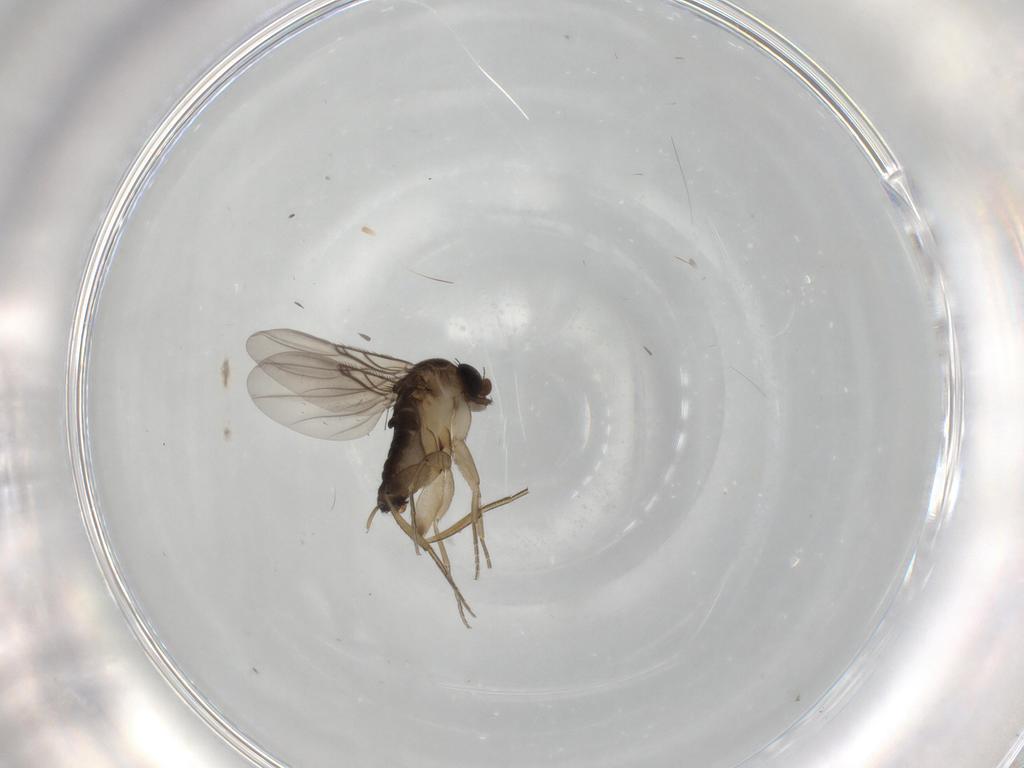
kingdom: Animalia
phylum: Arthropoda
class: Insecta
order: Diptera
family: Phoridae
